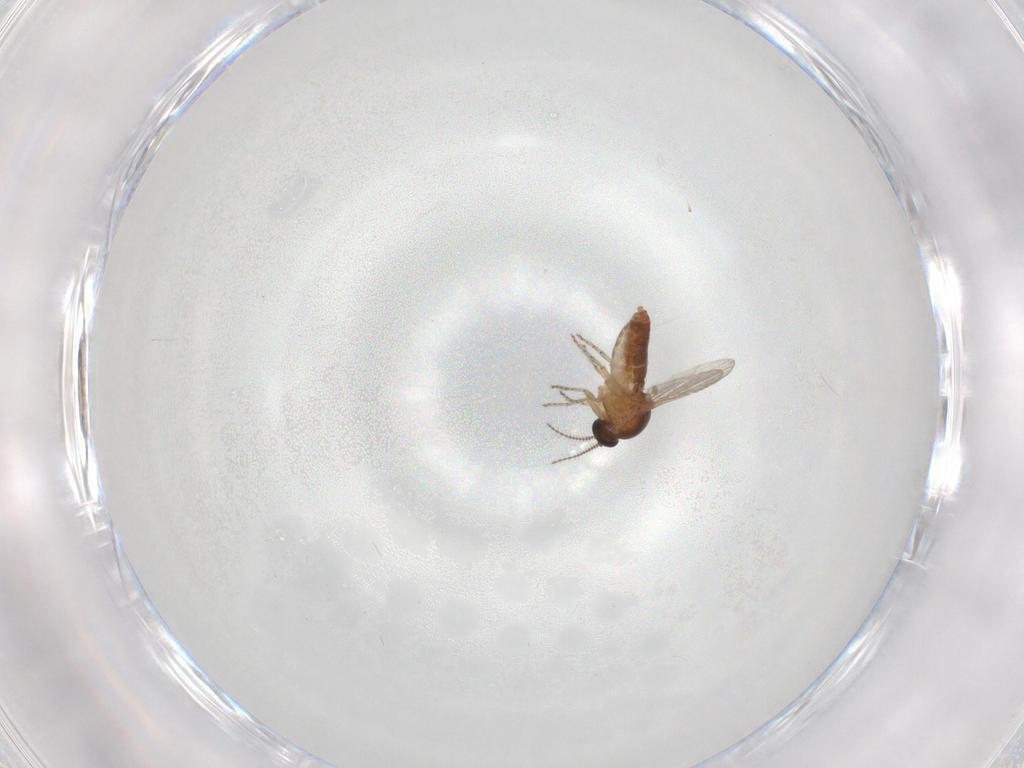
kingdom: Animalia
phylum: Arthropoda
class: Insecta
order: Diptera
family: Ceratopogonidae
